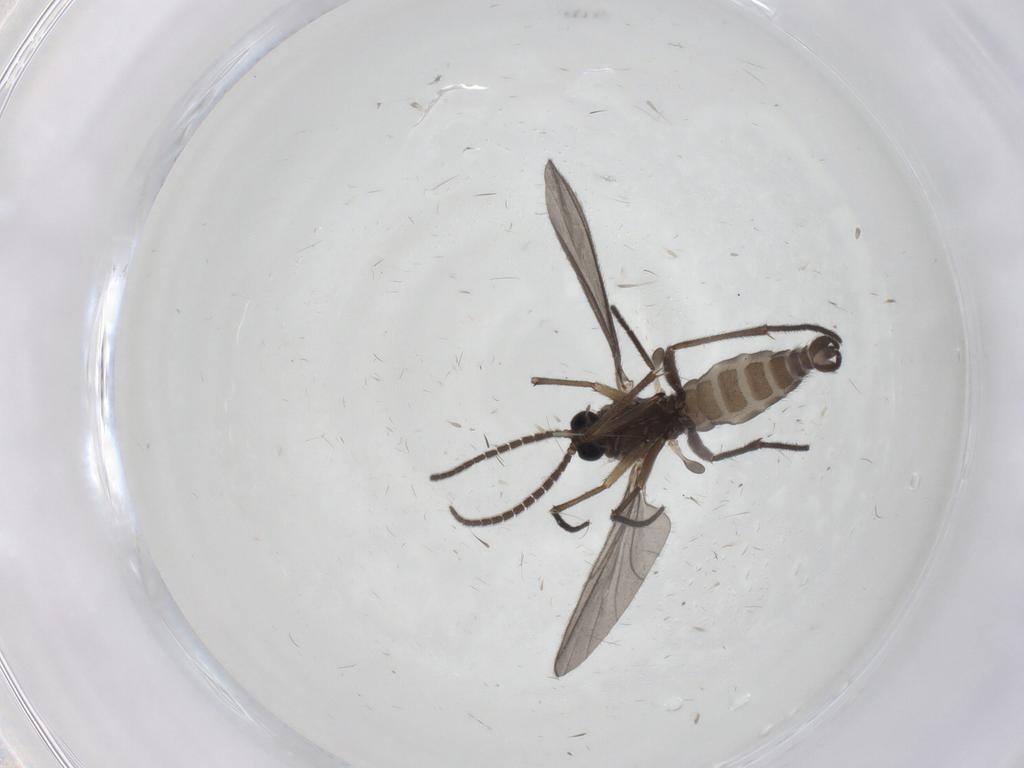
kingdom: Animalia
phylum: Arthropoda
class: Insecta
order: Diptera
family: Sciaridae
